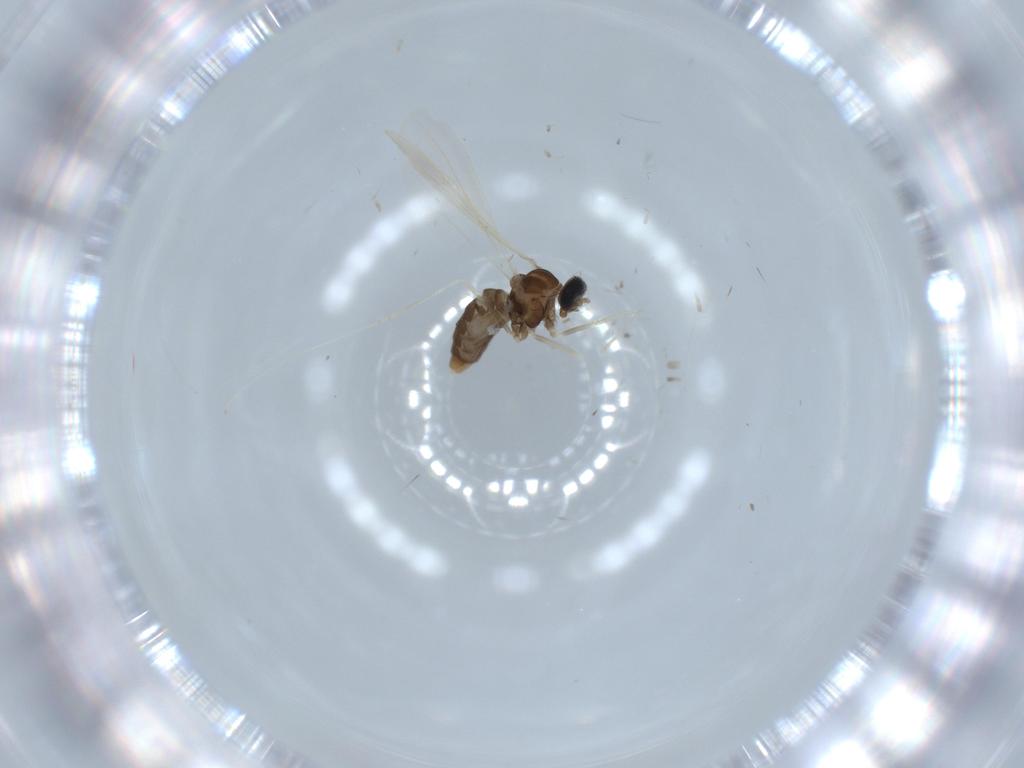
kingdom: Animalia
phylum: Arthropoda
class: Insecta
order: Diptera
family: Cecidomyiidae
